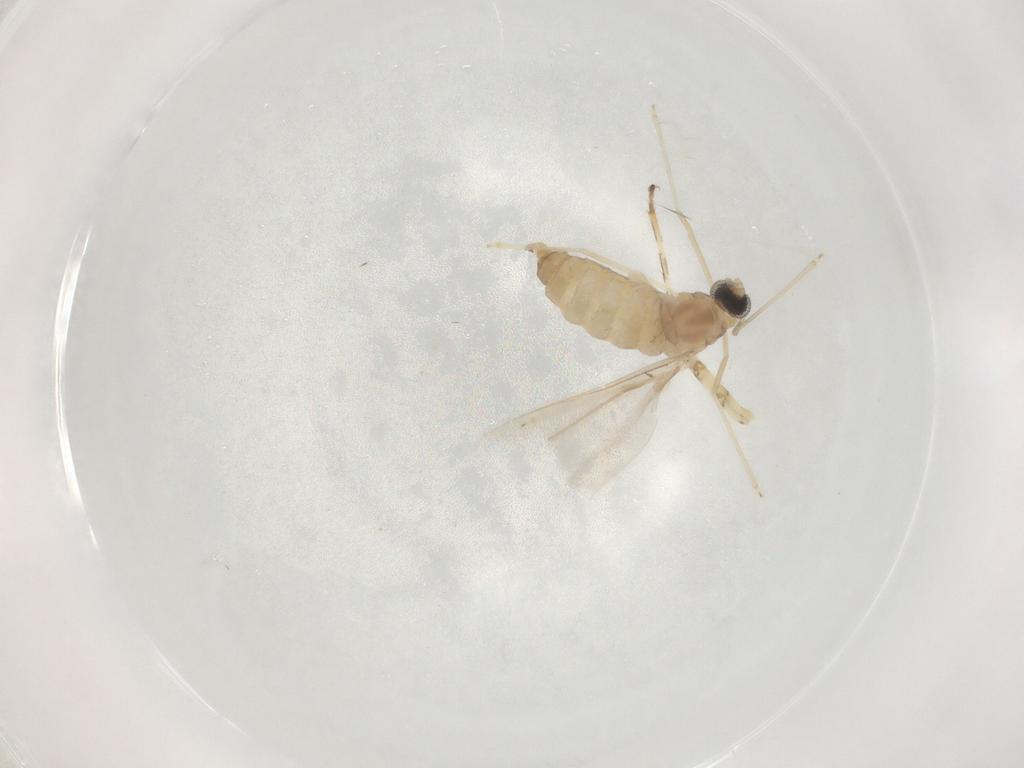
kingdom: Animalia
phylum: Arthropoda
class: Insecta
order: Diptera
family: Cecidomyiidae
